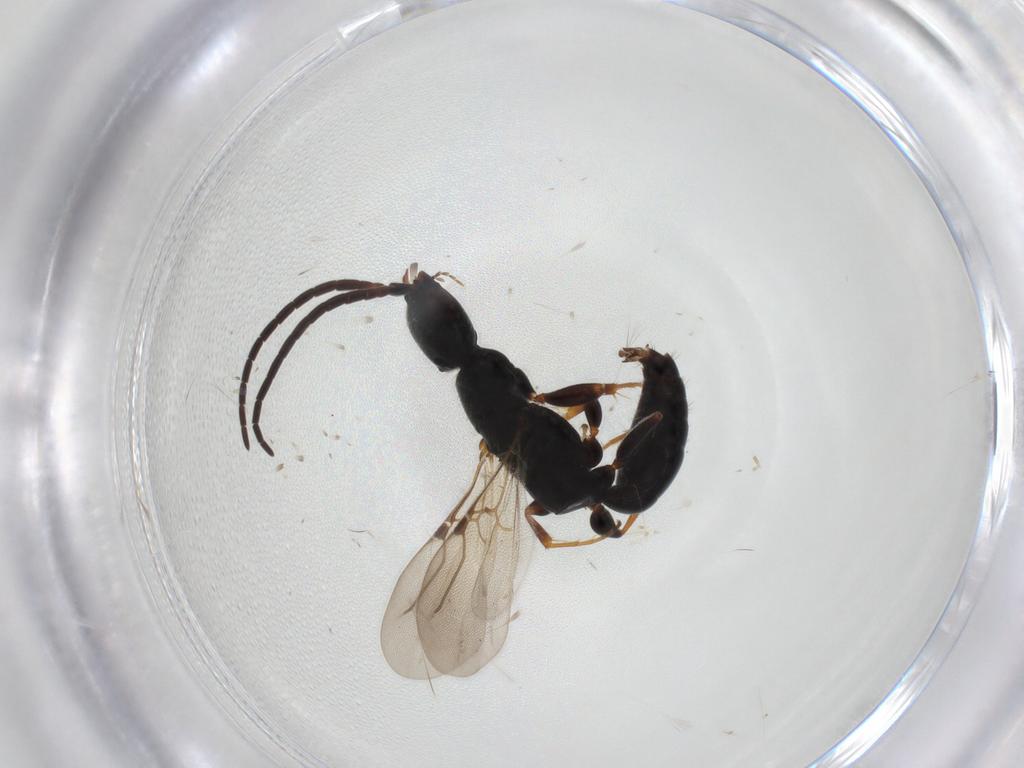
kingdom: Animalia
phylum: Arthropoda
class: Insecta
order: Hymenoptera
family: Bethylidae
